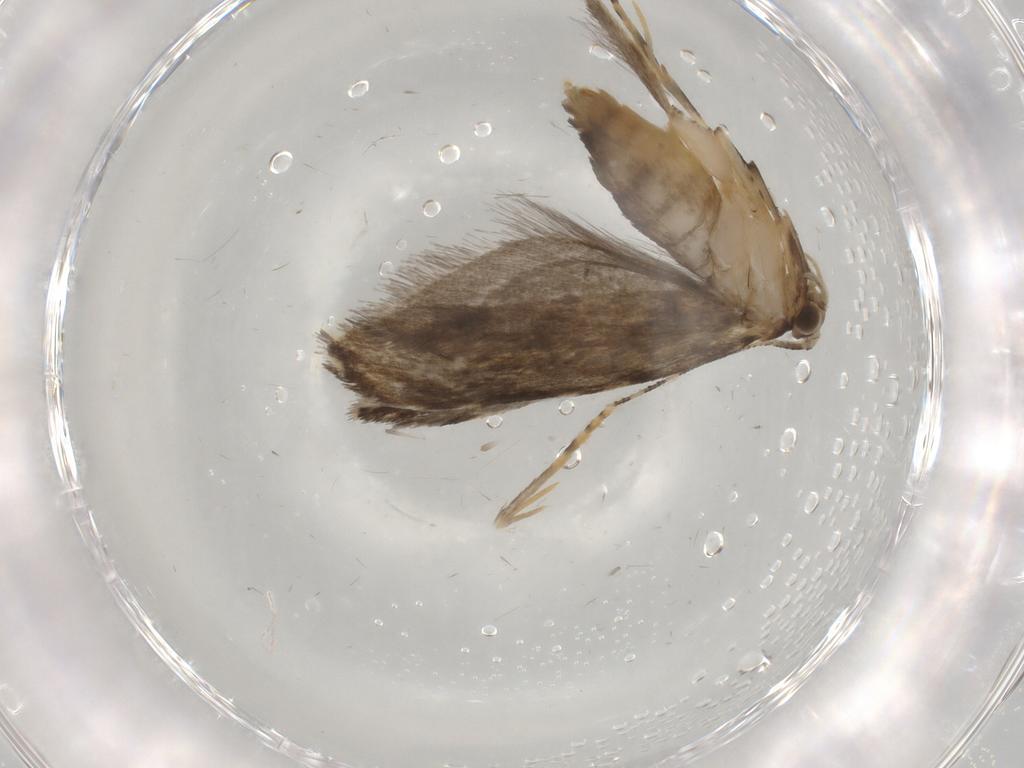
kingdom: Animalia
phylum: Arthropoda
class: Insecta
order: Lepidoptera
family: Tineidae
